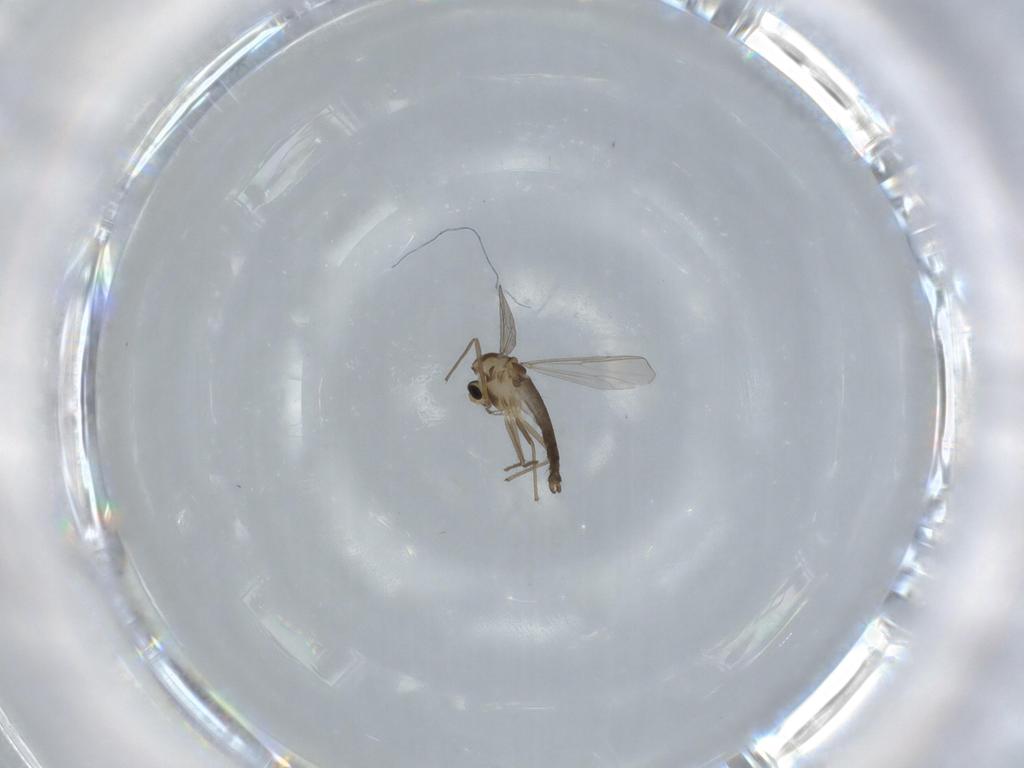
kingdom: Animalia
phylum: Arthropoda
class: Insecta
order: Diptera
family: Chironomidae
